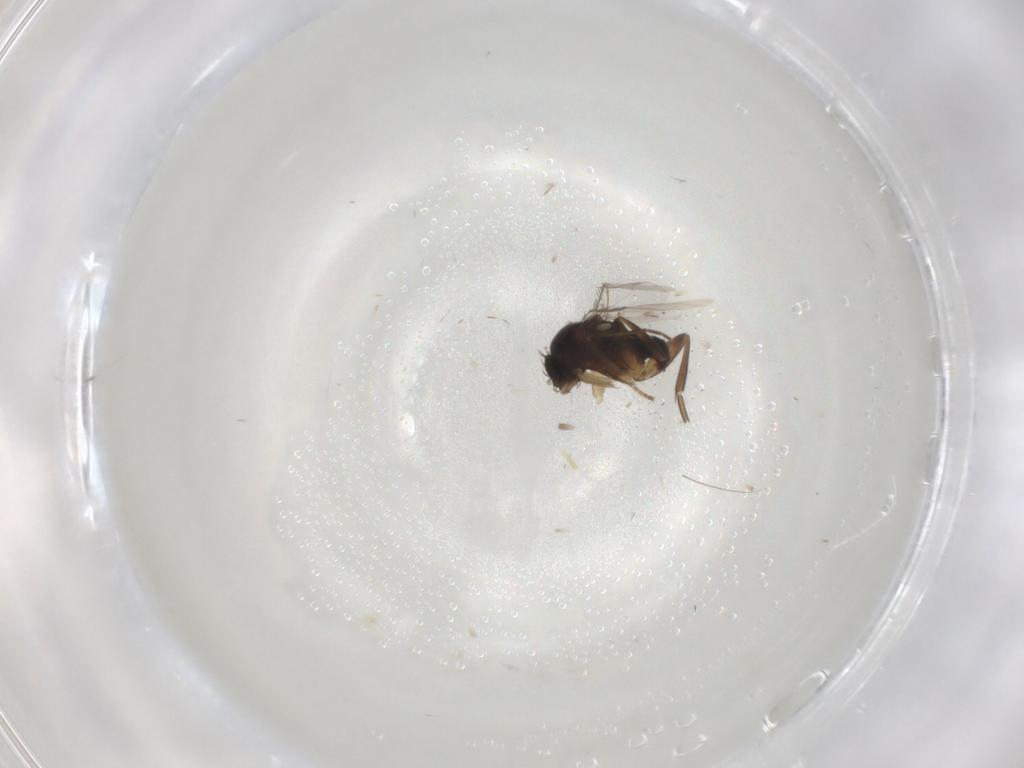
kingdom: Animalia
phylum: Arthropoda
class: Insecta
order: Diptera
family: Phoridae
